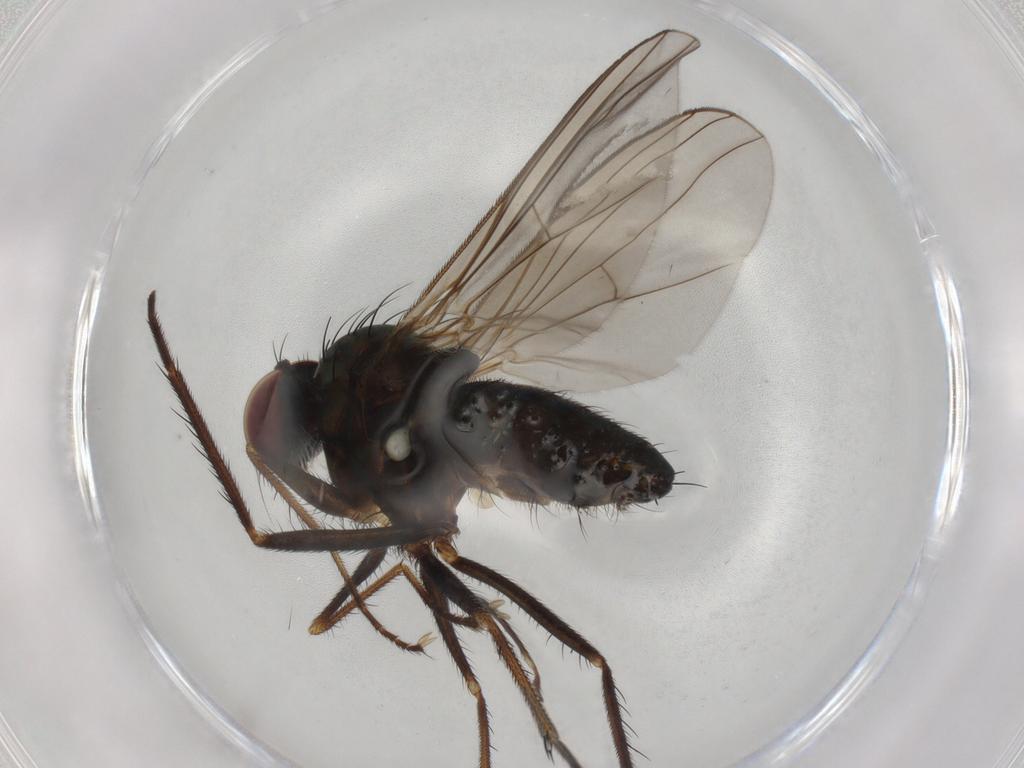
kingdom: Animalia
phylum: Arthropoda
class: Insecta
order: Diptera
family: Dolichopodidae
